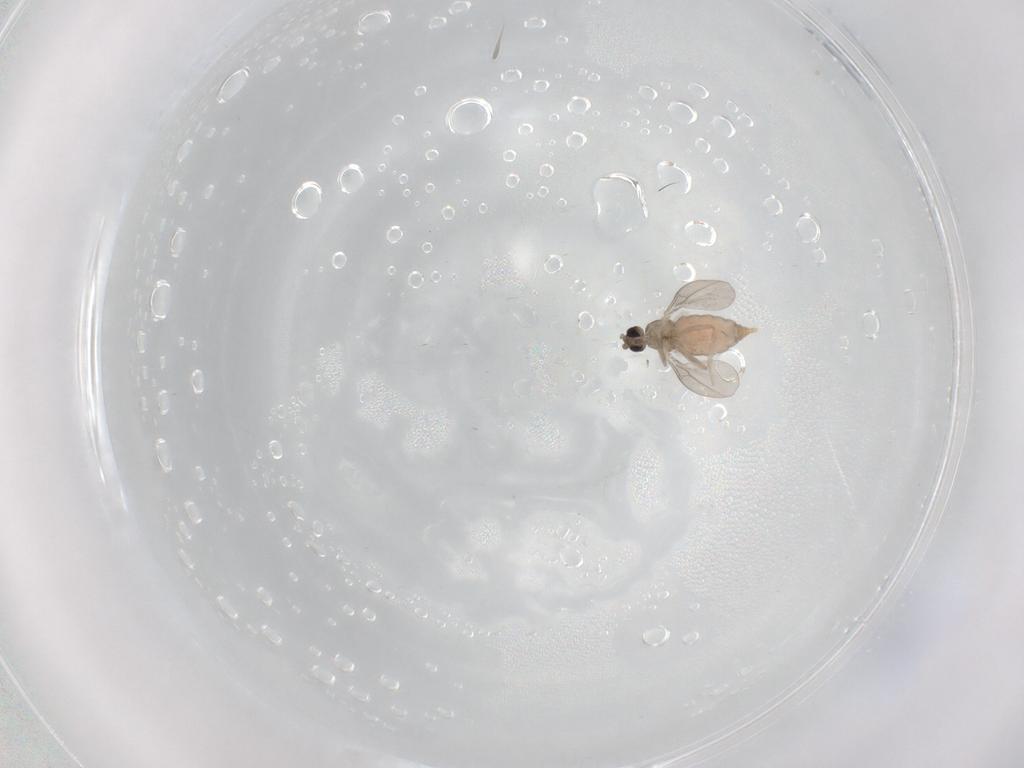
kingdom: Animalia
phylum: Arthropoda
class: Insecta
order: Diptera
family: Cecidomyiidae
